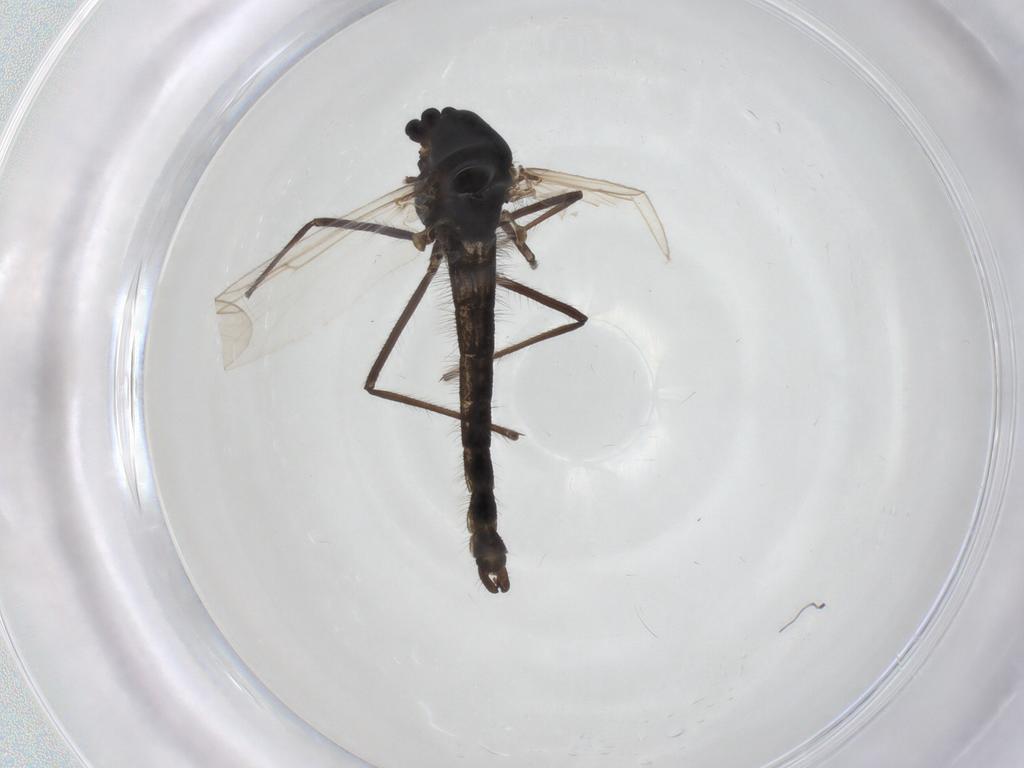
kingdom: Animalia
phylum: Arthropoda
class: Insecta
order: Diptera
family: Chironomidae
